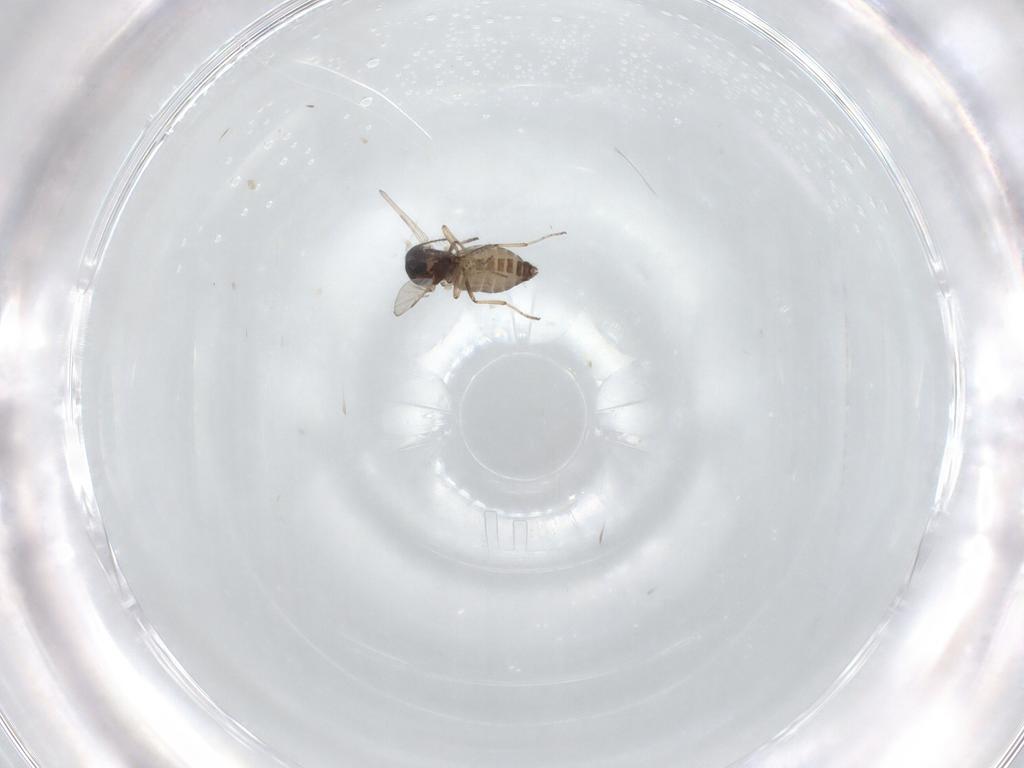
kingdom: Animalia
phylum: Arthropoda
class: Insecta
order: Diptera
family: Ceratopogonidae
